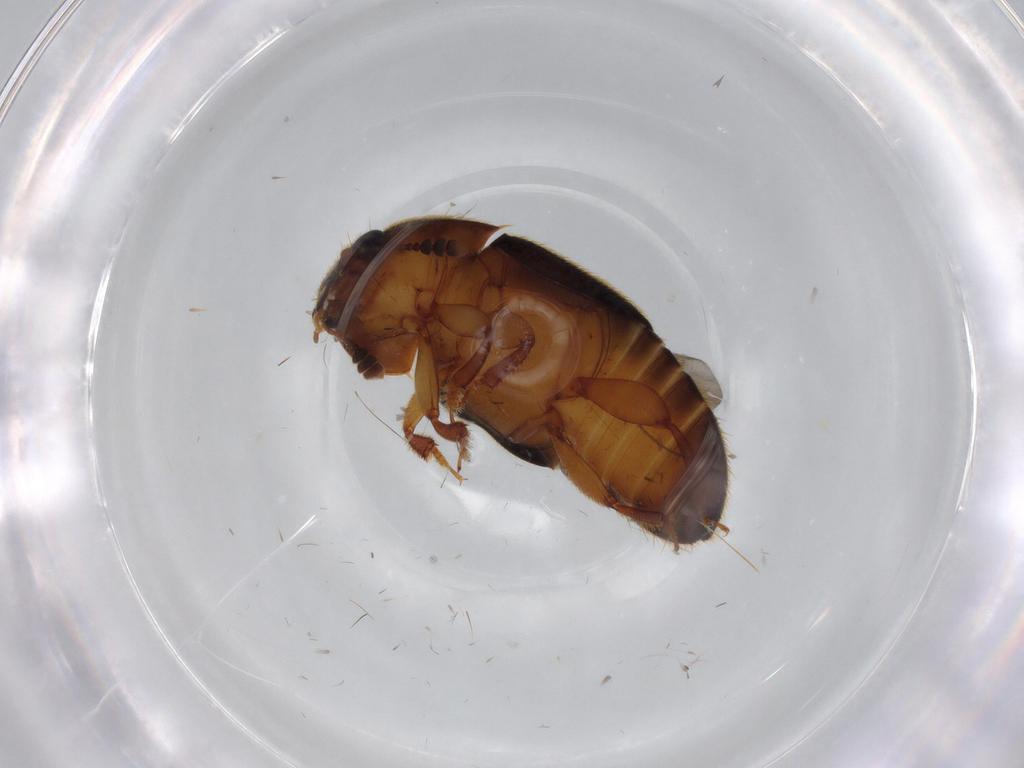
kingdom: Animalia
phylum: Arthropoda
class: Insecta
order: Coleoptera
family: Nitidulidae
